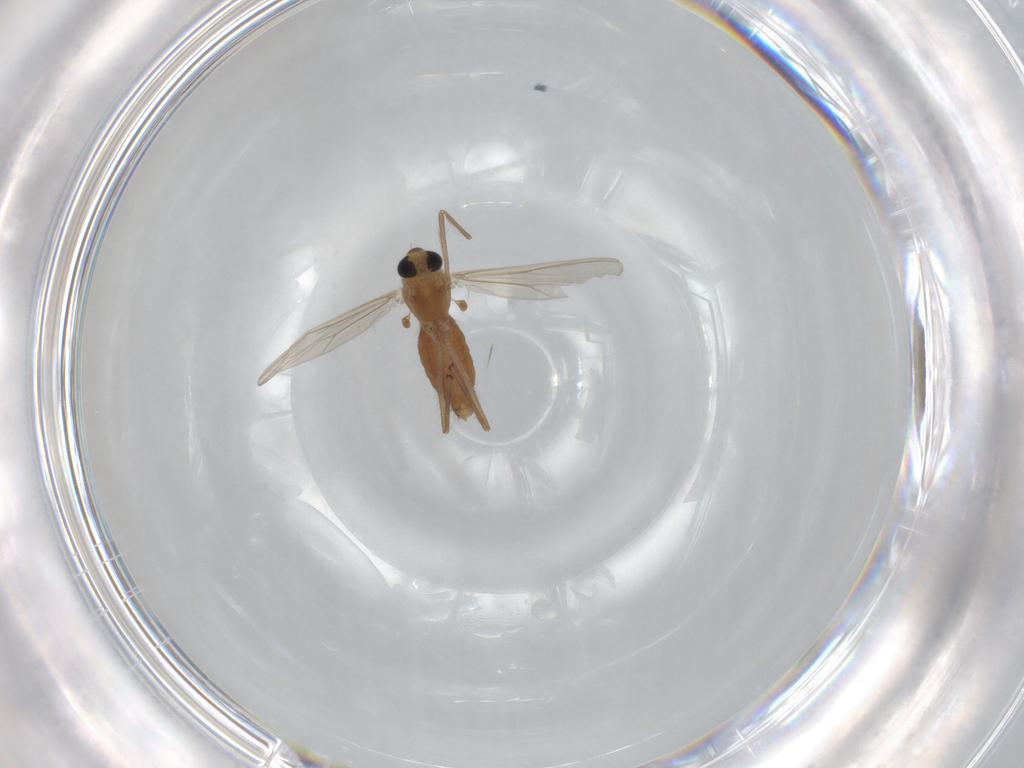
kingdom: Animalia
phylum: Arthropoda
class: Insecta
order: Diptera
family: Chironomidae
